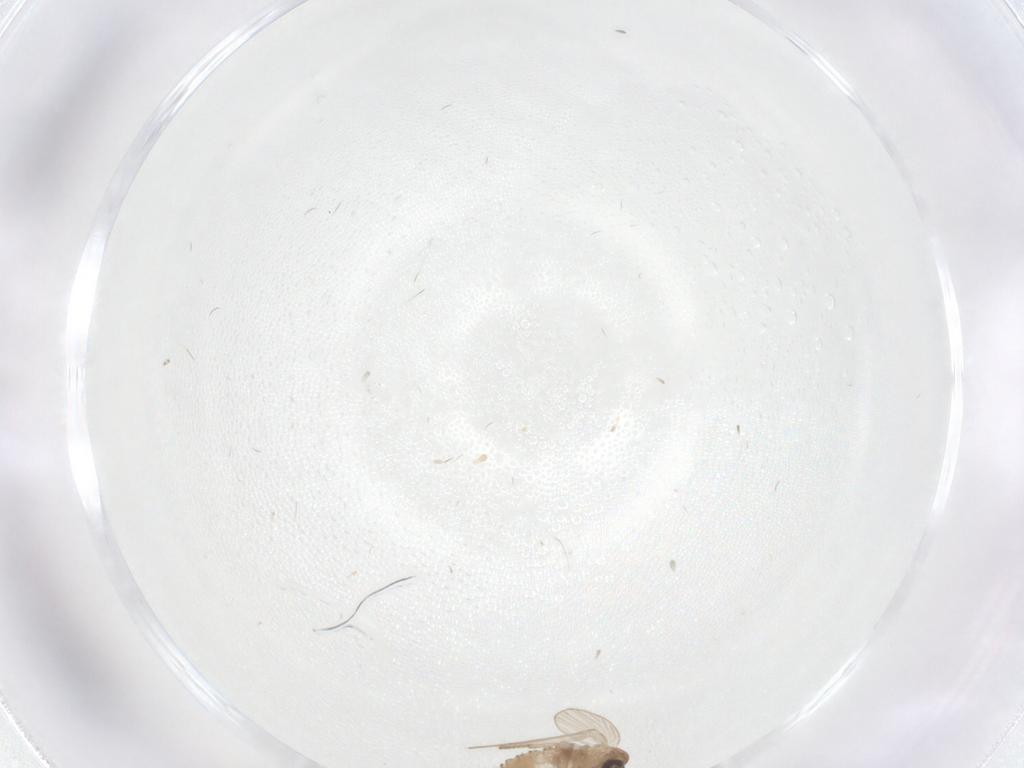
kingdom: Animalia
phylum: Arthropoda
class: Insecta
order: Diptera
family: Psychodidae
